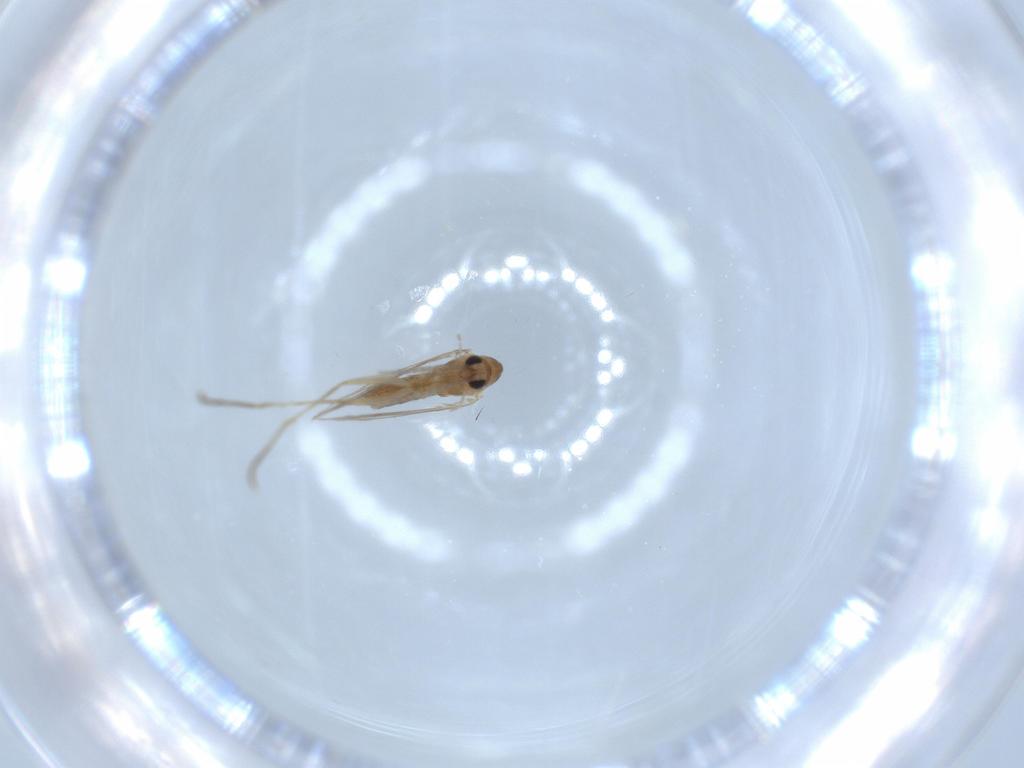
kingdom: Animalia
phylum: Arthropoda
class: Insecta
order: Diptera
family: Psychodidae
